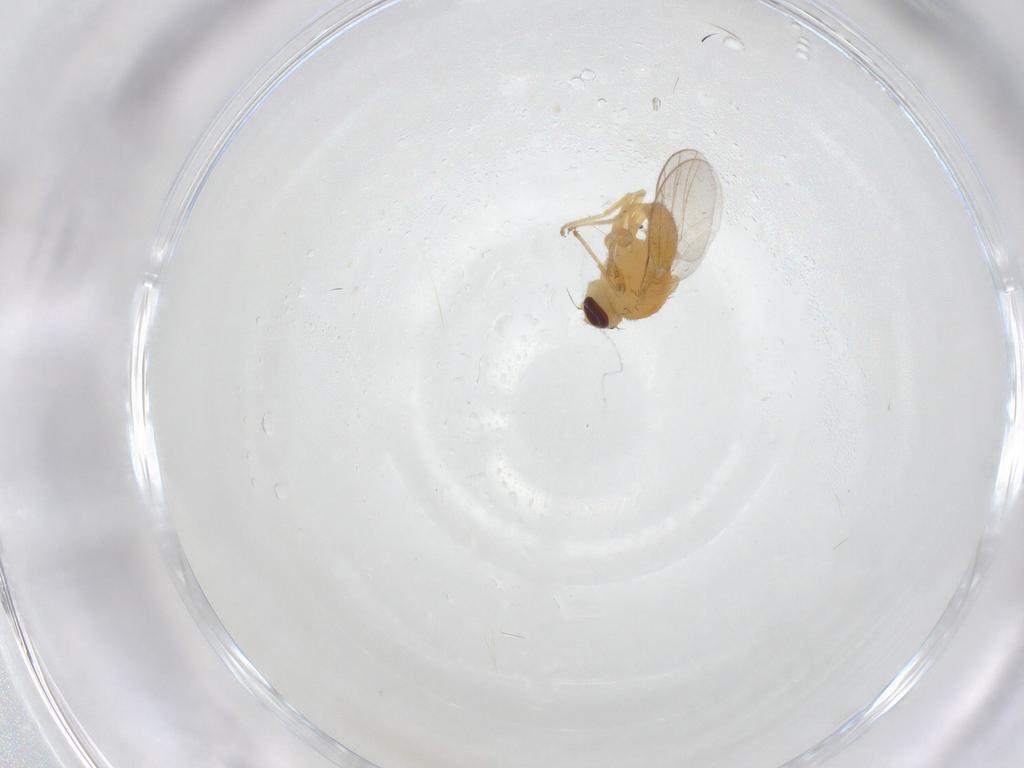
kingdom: Animalia
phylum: Arthropoda
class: Insecta
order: Diptera
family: Chloropidae
